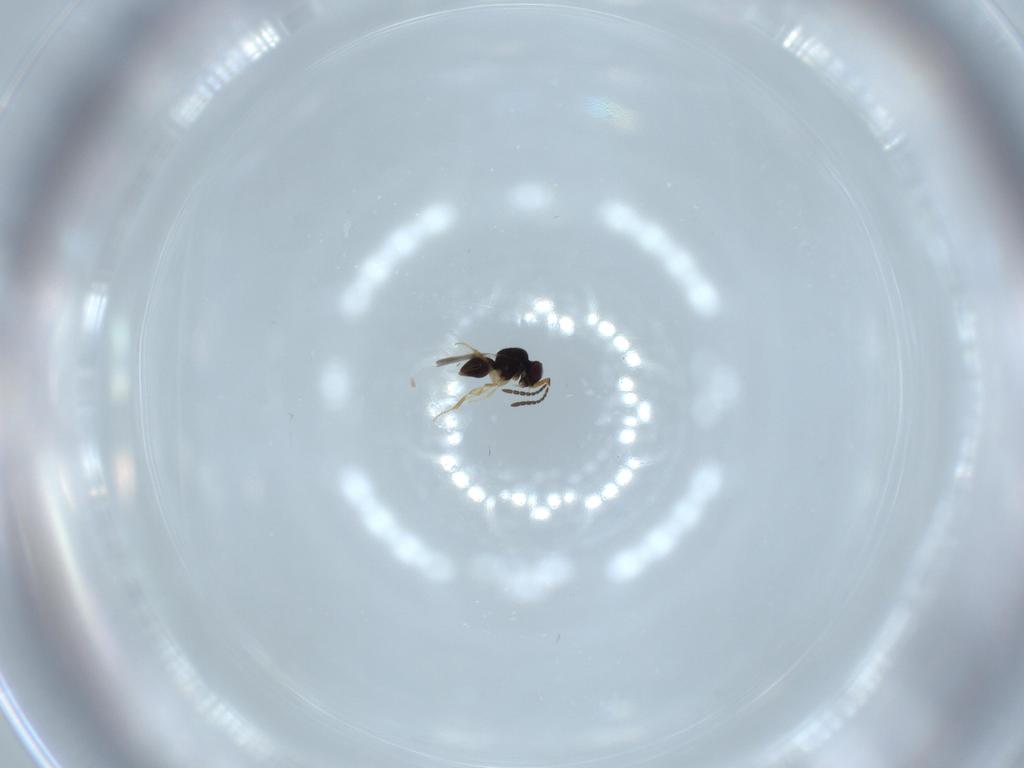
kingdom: Animalia
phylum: Arthropoda
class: Insecta
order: Hymenoptera
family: Ceraphronidae
